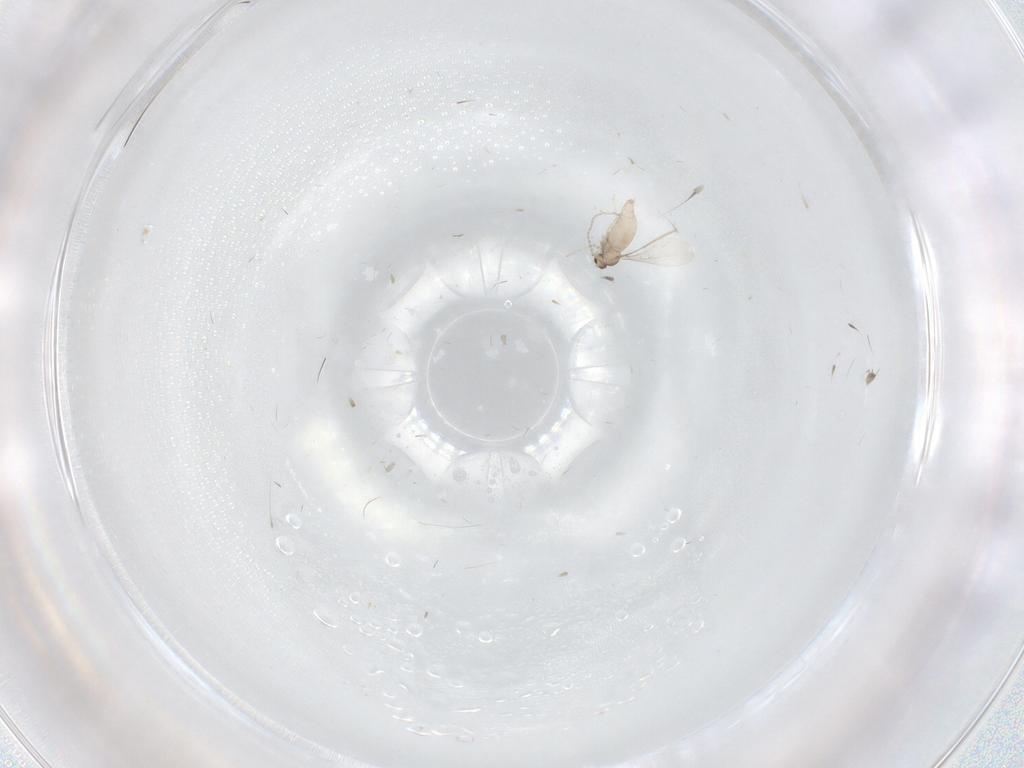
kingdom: Animalia
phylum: Arthropoda
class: Insecta
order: Diptera
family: Cecidomyiidae
